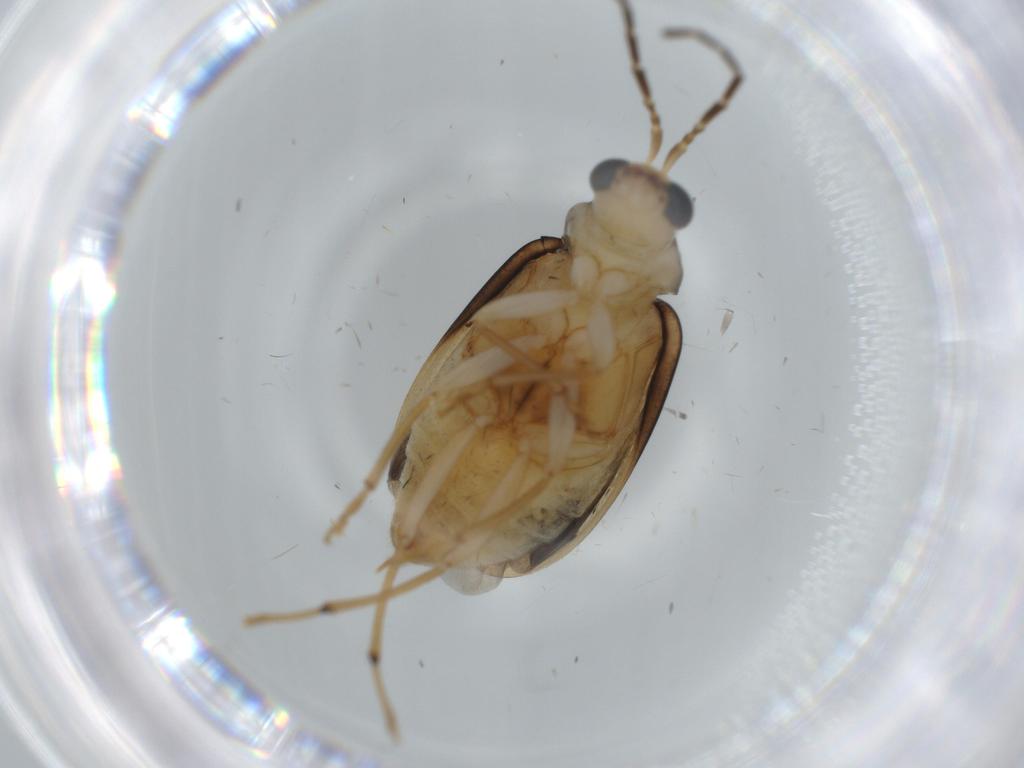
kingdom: Animalia
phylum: Arthropoda
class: Insecta
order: Coleoptera
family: Chrysomelidae
